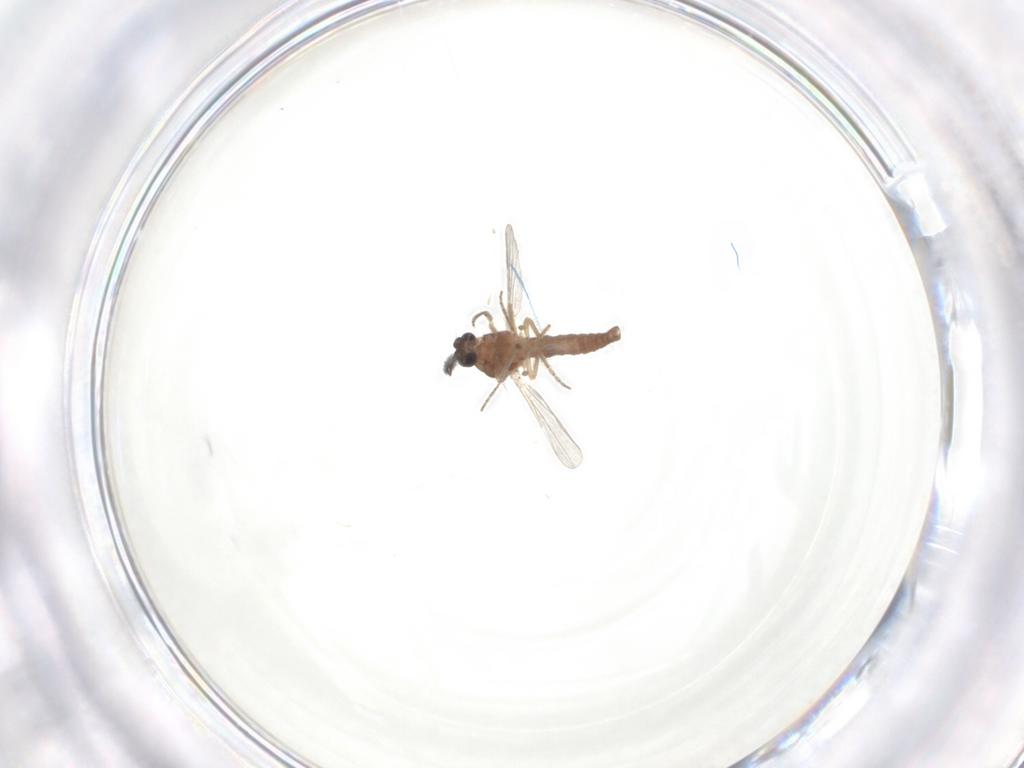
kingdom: Animalia
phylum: Arthropoda
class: Insecta
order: Diptera
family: Ceratopogonidae
